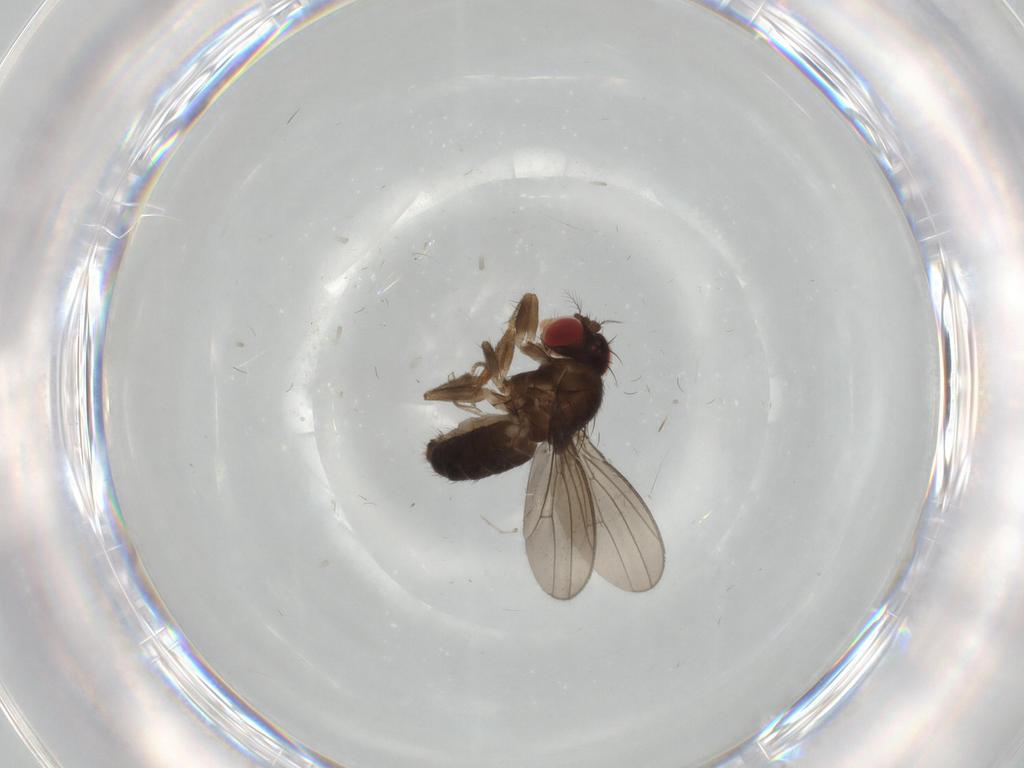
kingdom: Animalia
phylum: Arthropoda
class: Insecta
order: Diptera
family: Drosophilidae
